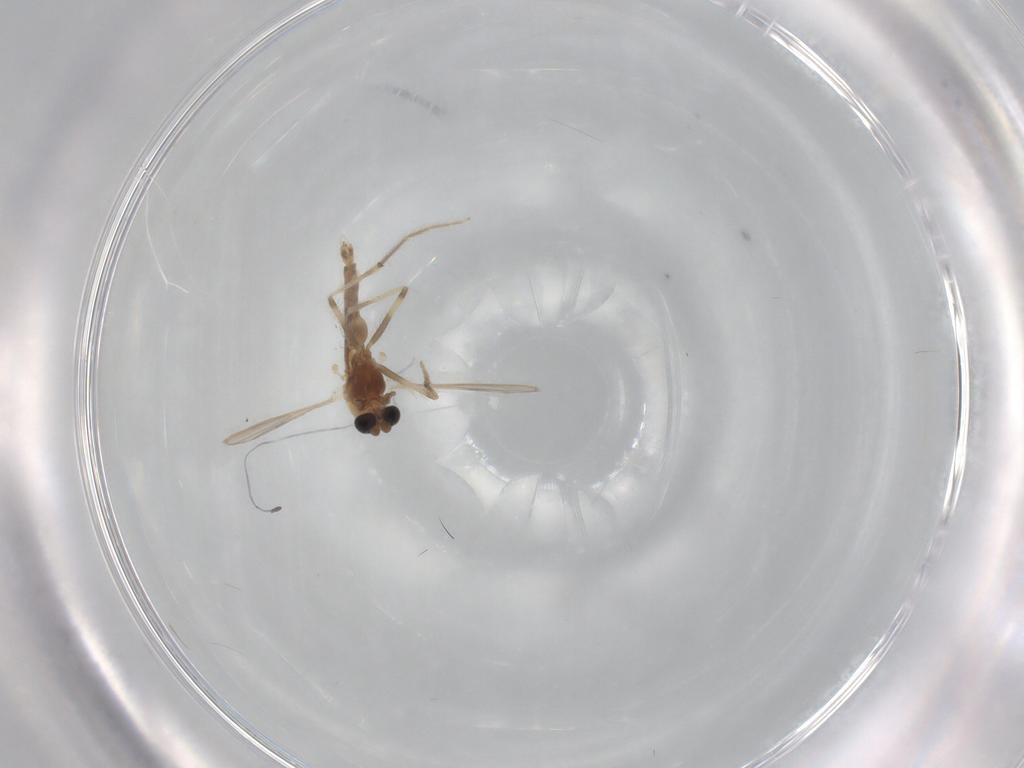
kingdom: Animalia
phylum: Arthropoda
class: Insecta
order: Diptera
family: Chironomidae
